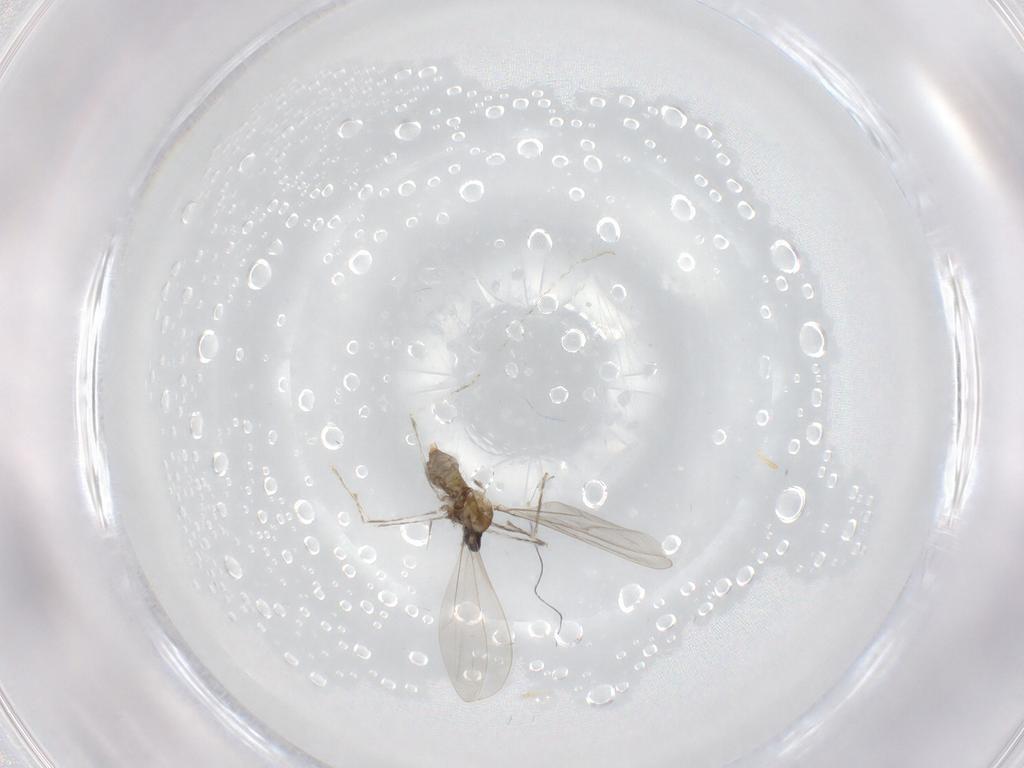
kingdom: Animalia
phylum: Arthropoda
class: Insecta
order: Diptera
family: Cecidomyiidae
